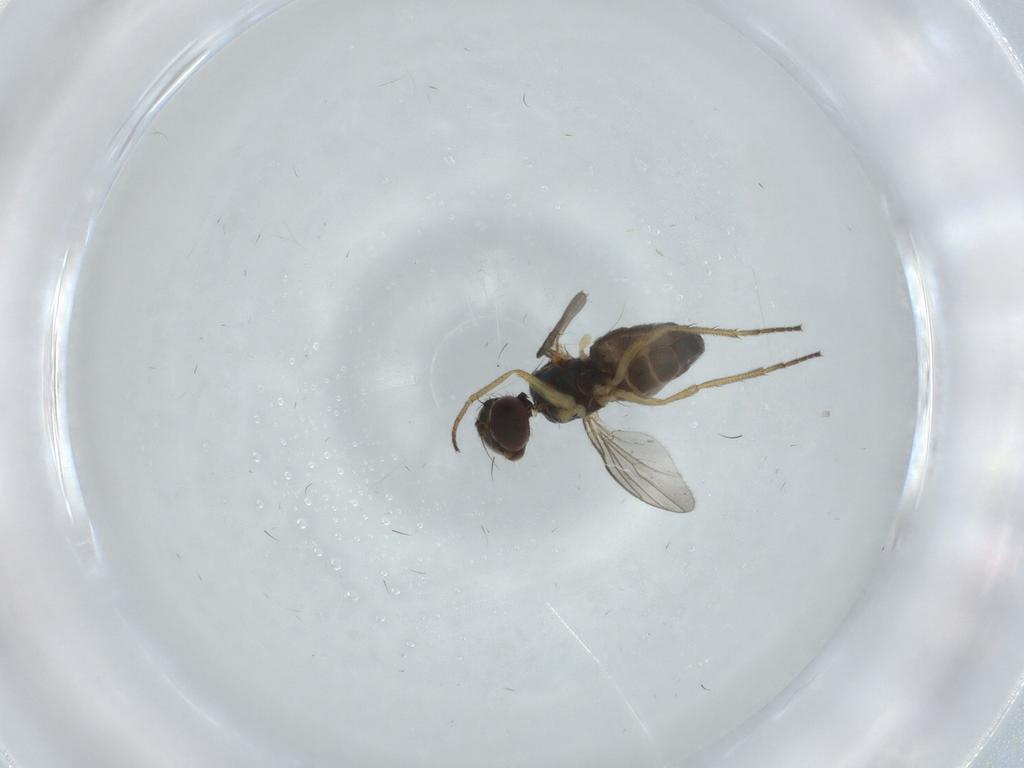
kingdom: Animalia
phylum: Arthropoda
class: Insecta
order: Diptera
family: Dolichopodidae
